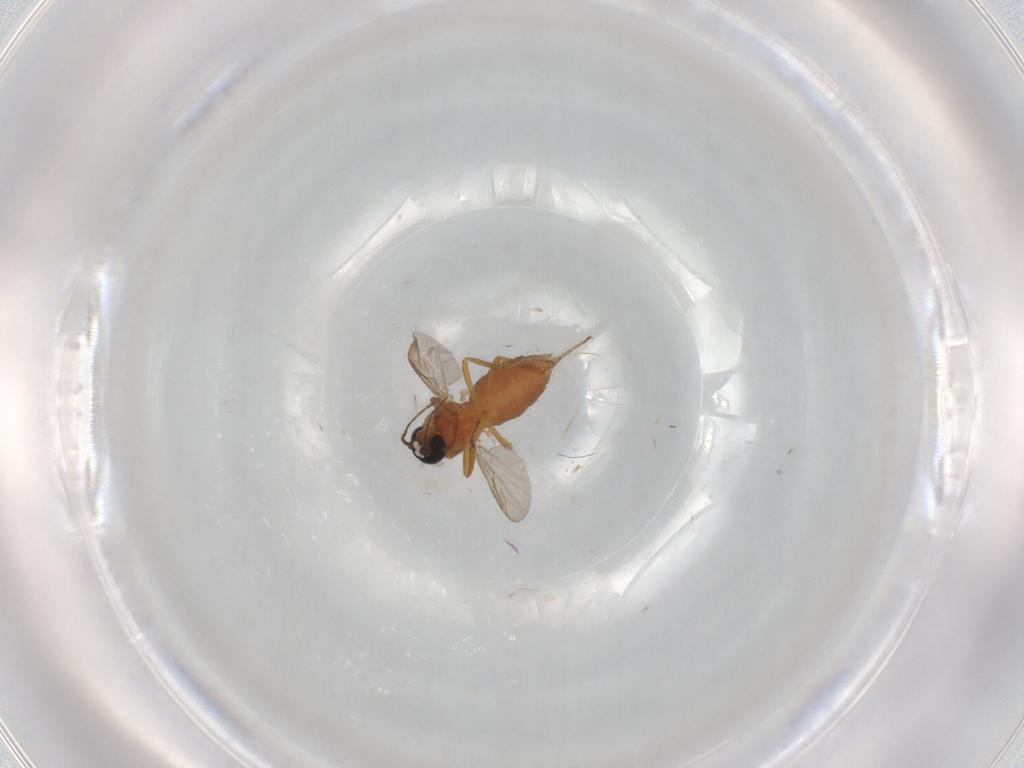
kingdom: Animalia
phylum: Arthropoda
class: Insecta
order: Diptera
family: Ceratopogonidae
